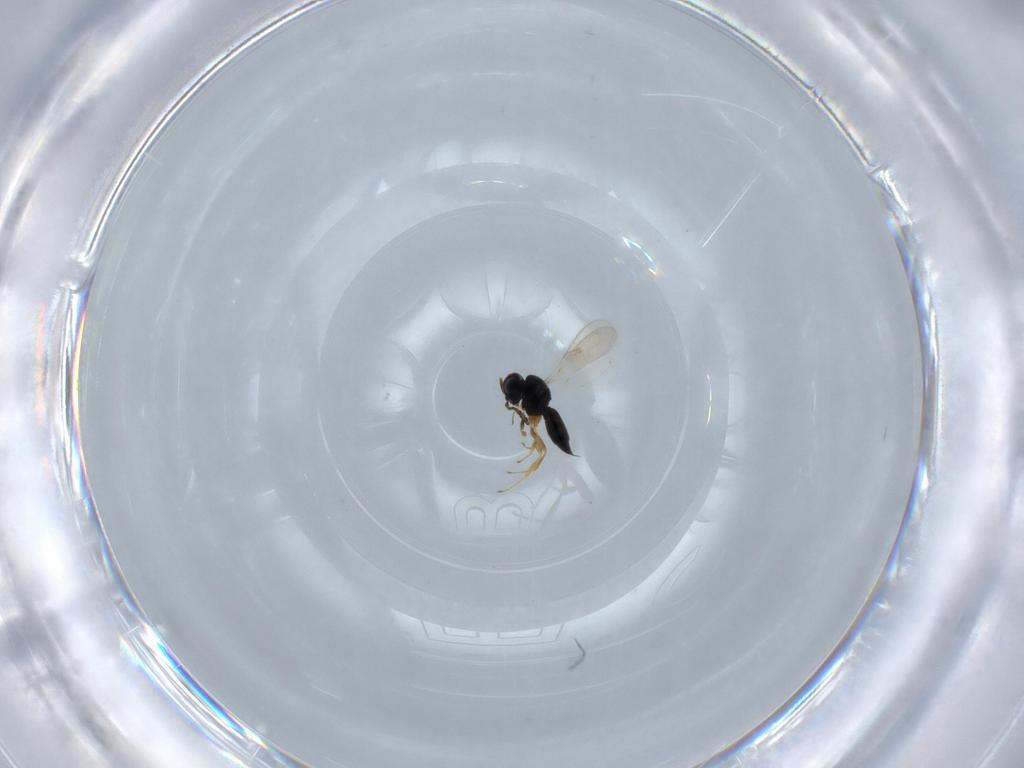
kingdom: Animalia
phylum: Arthropoda
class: Insecta
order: Hymenoptera
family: Scelionidae
